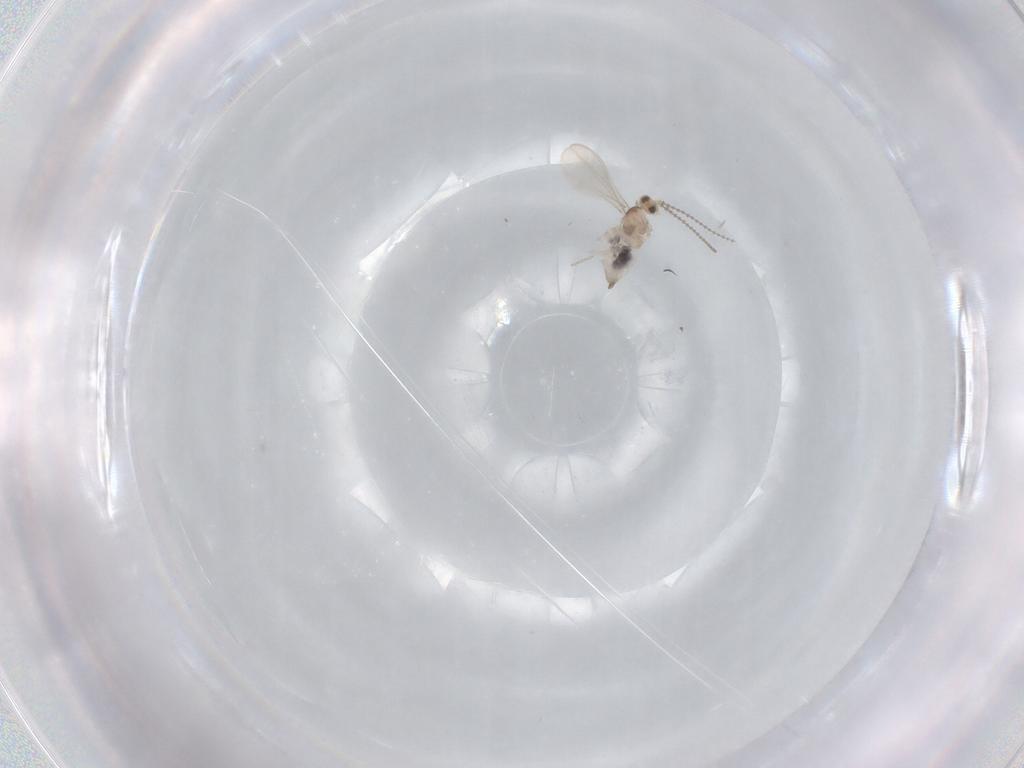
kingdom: Animalia
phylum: Arthropoda
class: Insecta
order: Diptera
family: Cecidomyiidae
